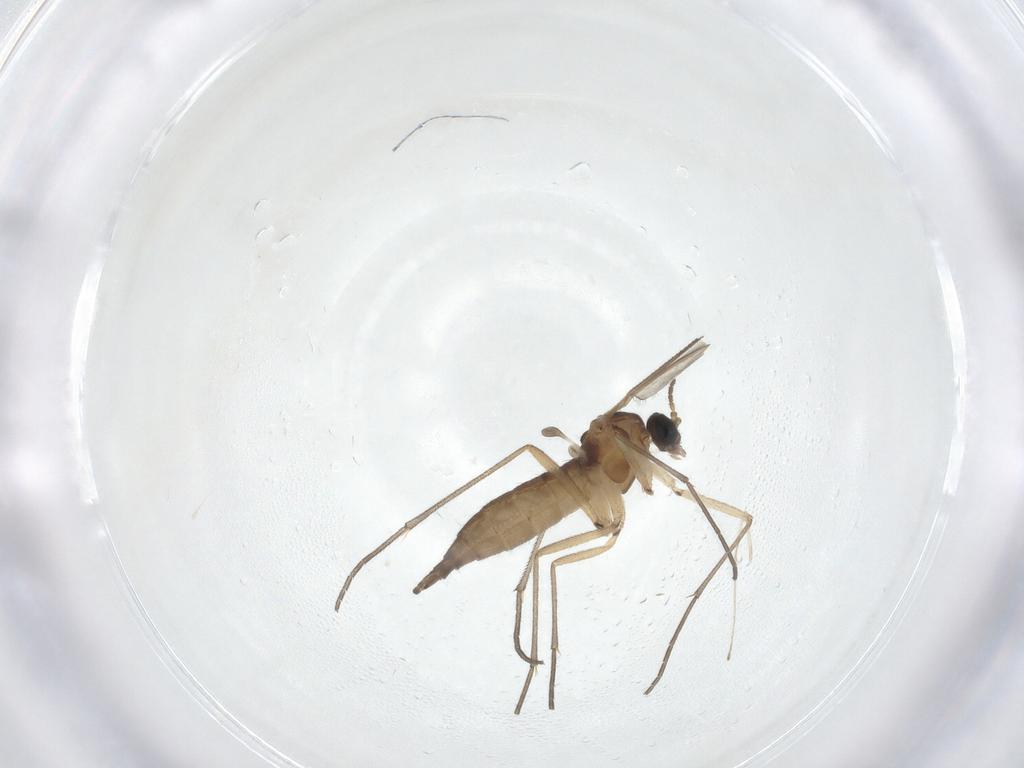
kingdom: Animalia
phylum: Arthropoda
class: Insecta
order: Diptera
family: Sciaridae
